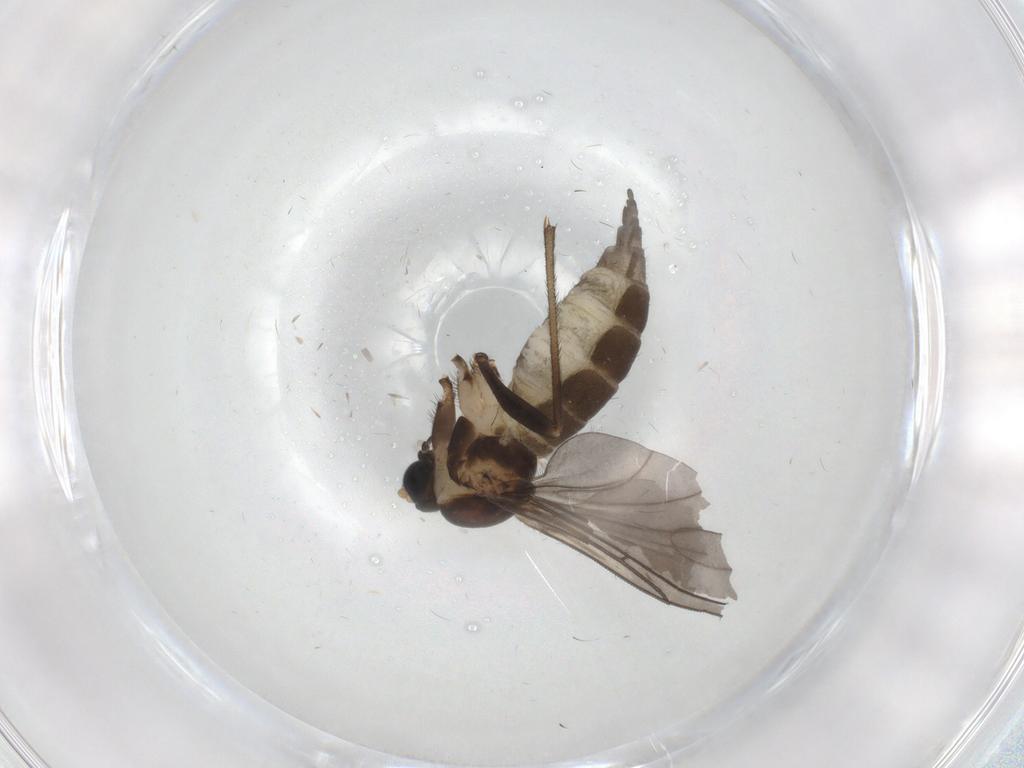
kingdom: Animalia
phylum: Arthropoda
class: Insecta
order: Diptera
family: Sciaridae
